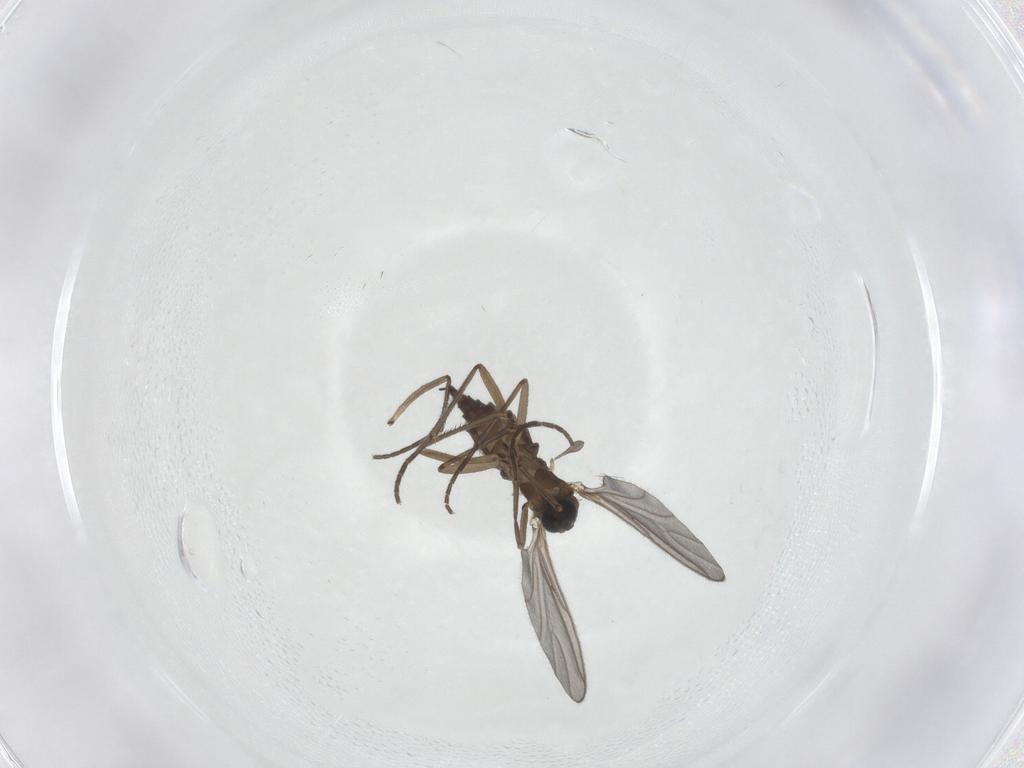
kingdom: Animalia
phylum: Arthropoda
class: Insecta
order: Diptera
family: Sciaridae
